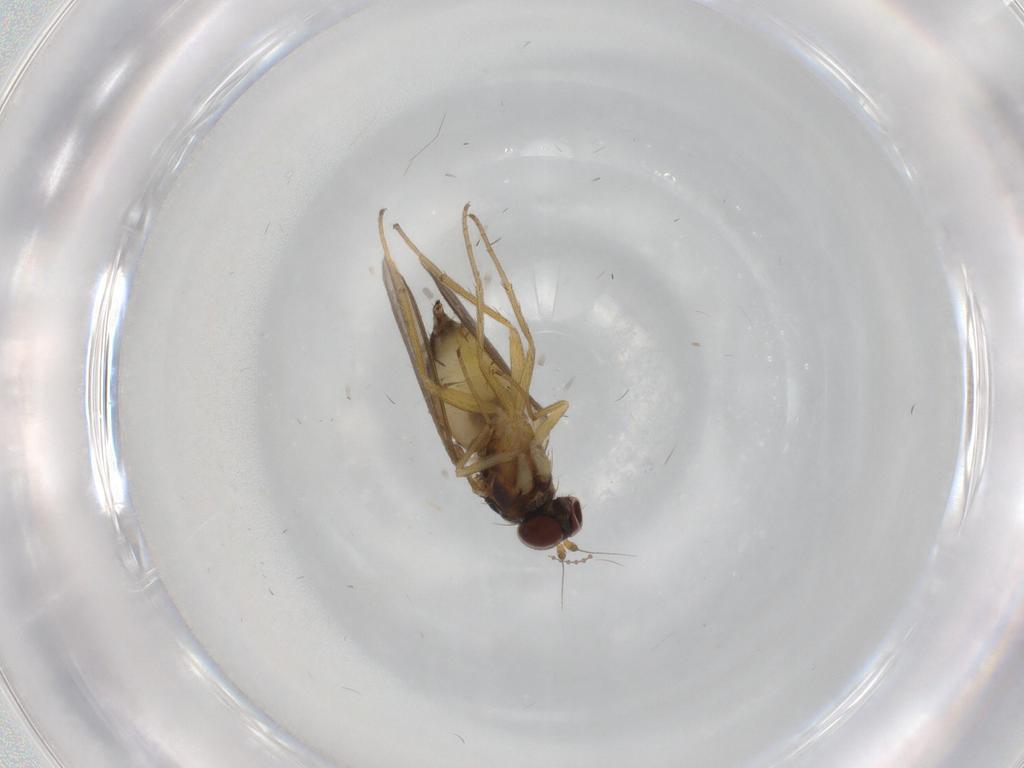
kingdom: Animalia
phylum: Arthropoda
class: Insecta
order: Diptera
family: Dolichopodidae
